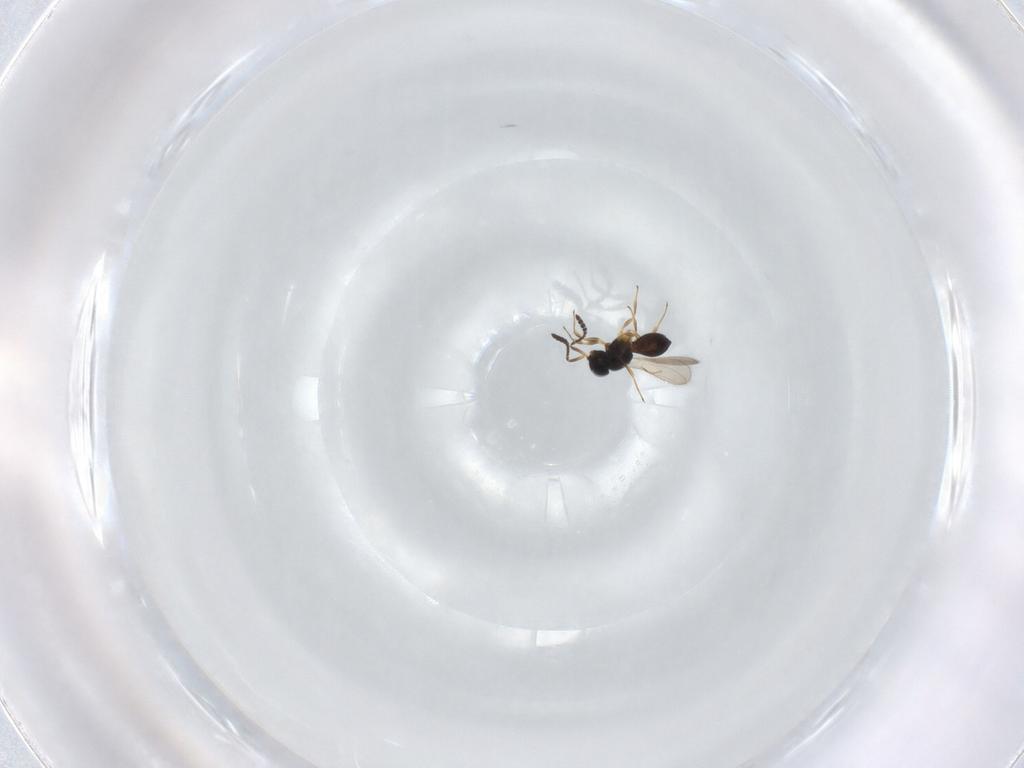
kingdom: Animalia
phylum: Arthropoda
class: Insecta
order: Hymenoptera
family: Scelionidae
